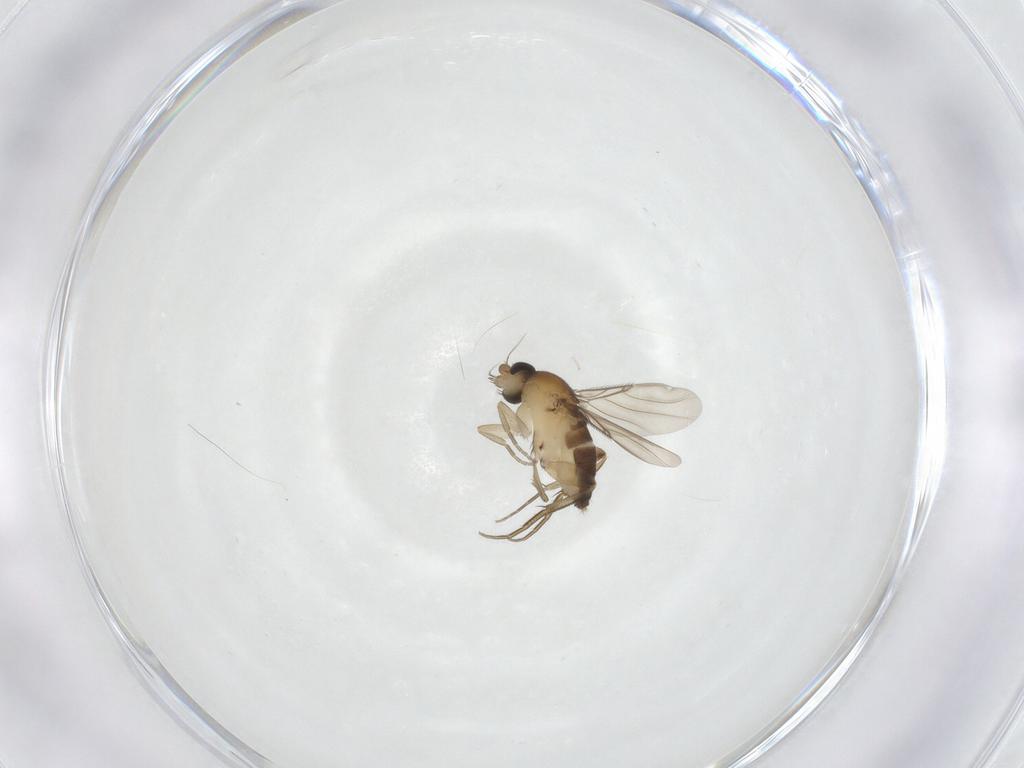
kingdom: Animalia
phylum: Arthropoda
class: Insecta
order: Diptera
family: Phoridae
